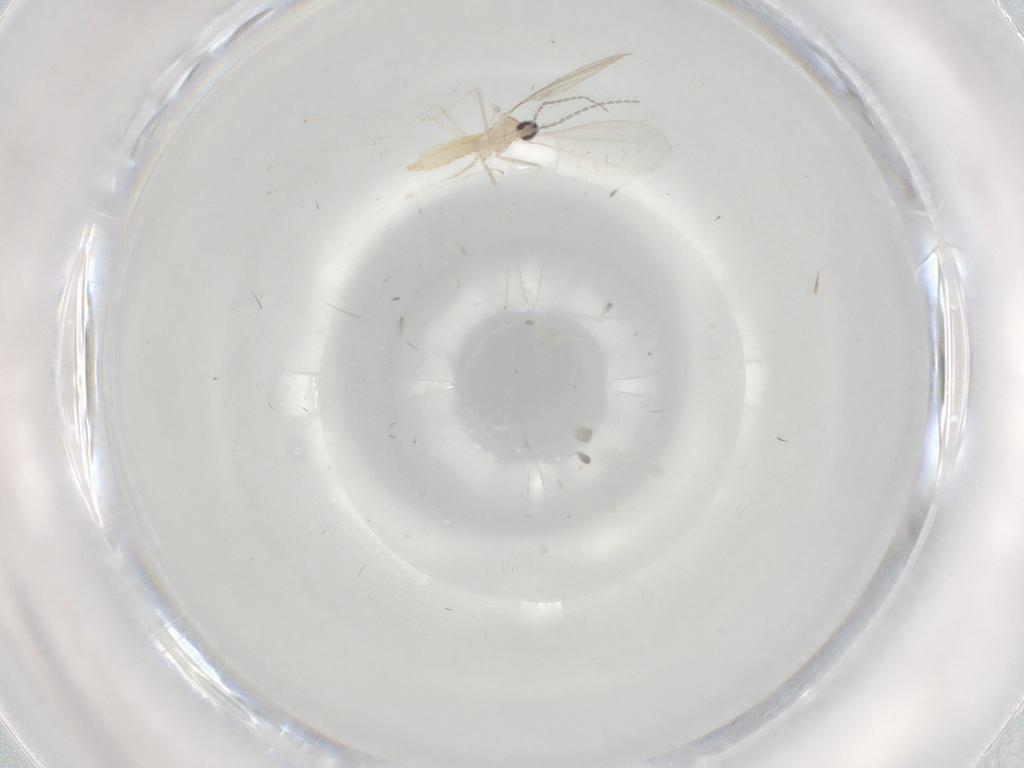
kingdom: Animalia
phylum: Arthropoda
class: Insecta
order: Diptera
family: Cecidomyiidae
